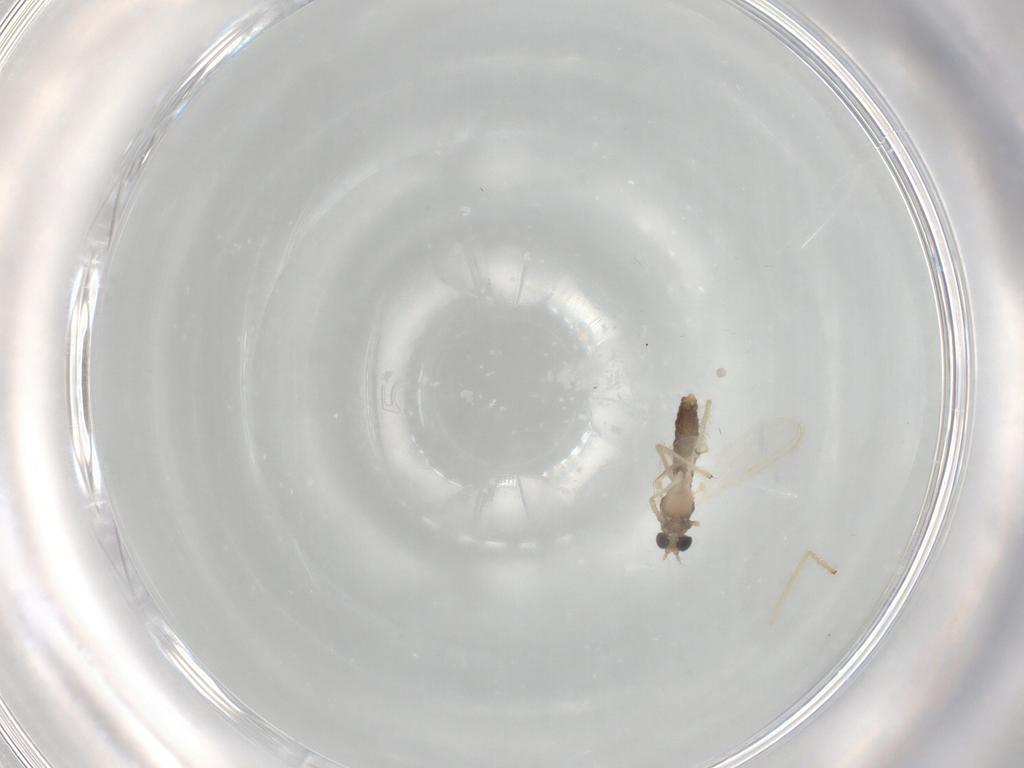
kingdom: Animalia
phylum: Arthropoda
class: Insecta
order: Diptera
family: Chironomidae
